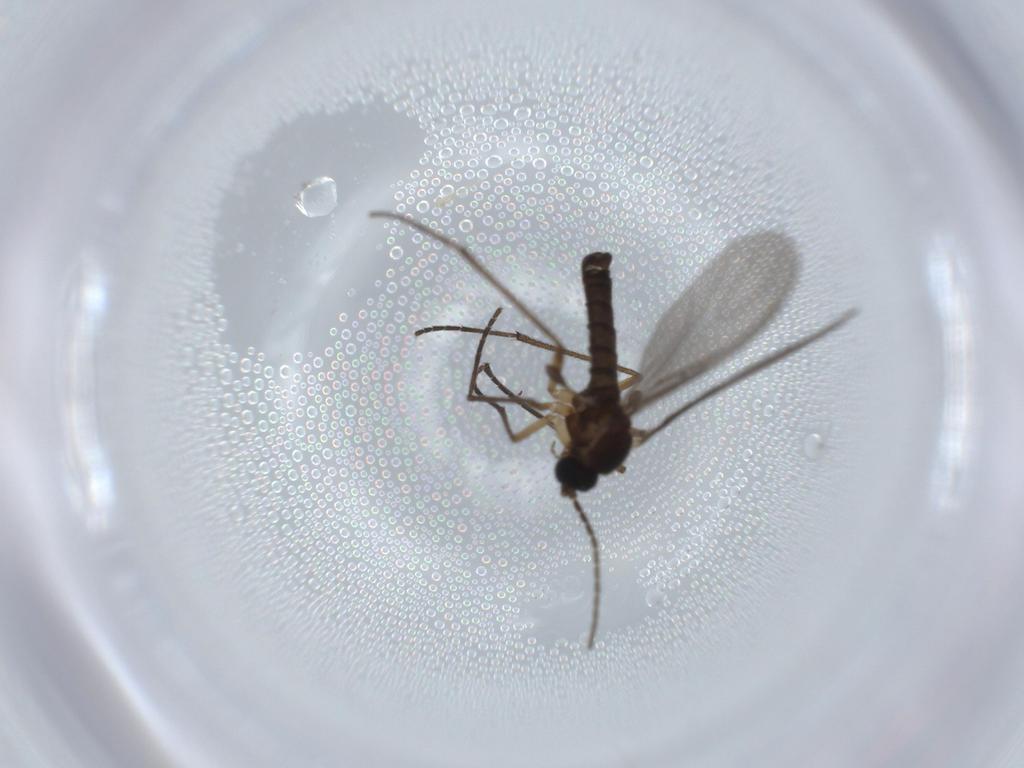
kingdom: Animalia
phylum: Arthropoda
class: Insecta
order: Diptera
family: Sciaridae
